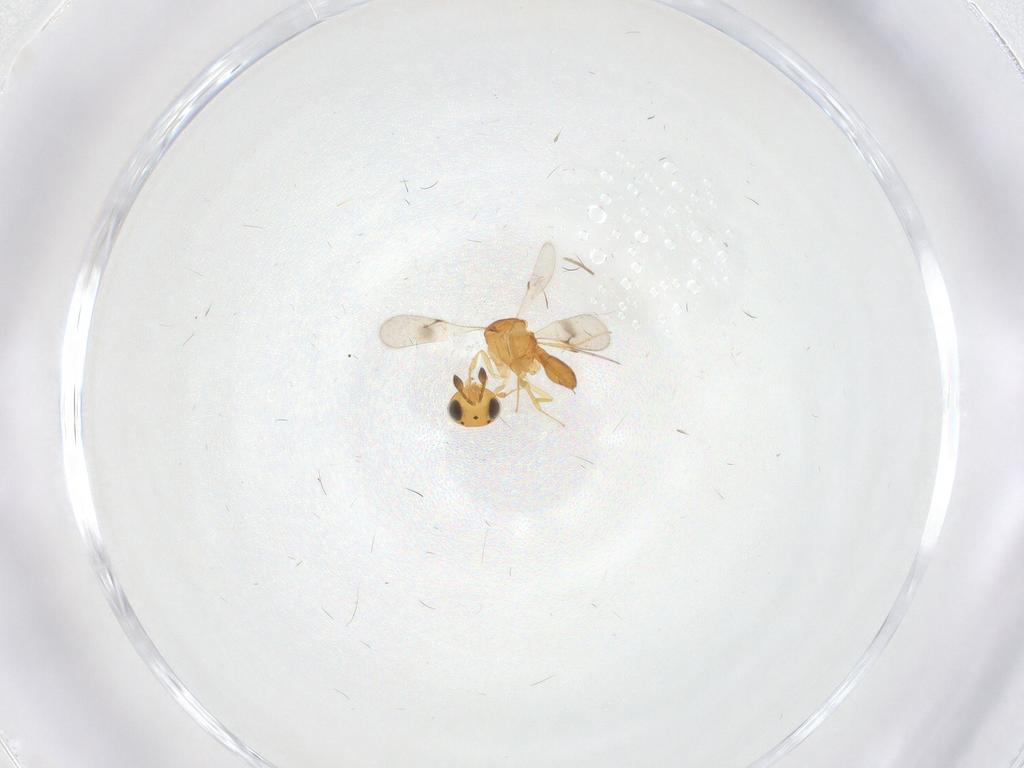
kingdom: Animalia
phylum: Arthropoda
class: Insecta
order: Hymenoptera
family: Scelionidae
